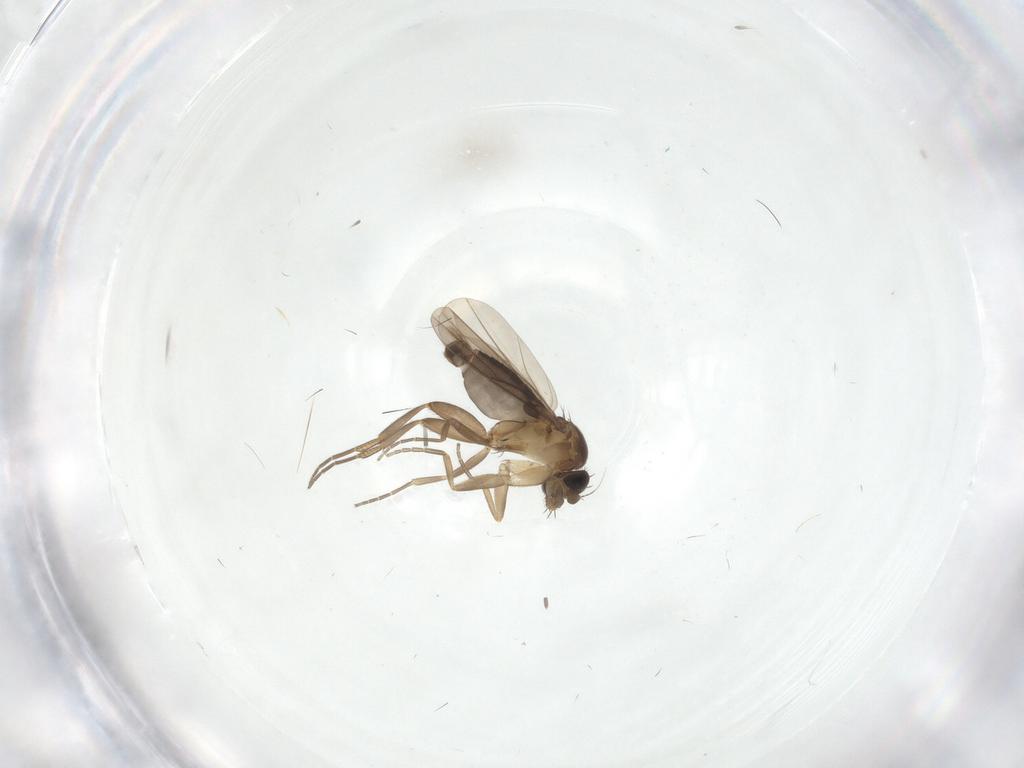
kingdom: Animalia
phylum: Arthropoda
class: Insecta
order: Diptera
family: Phoridae
